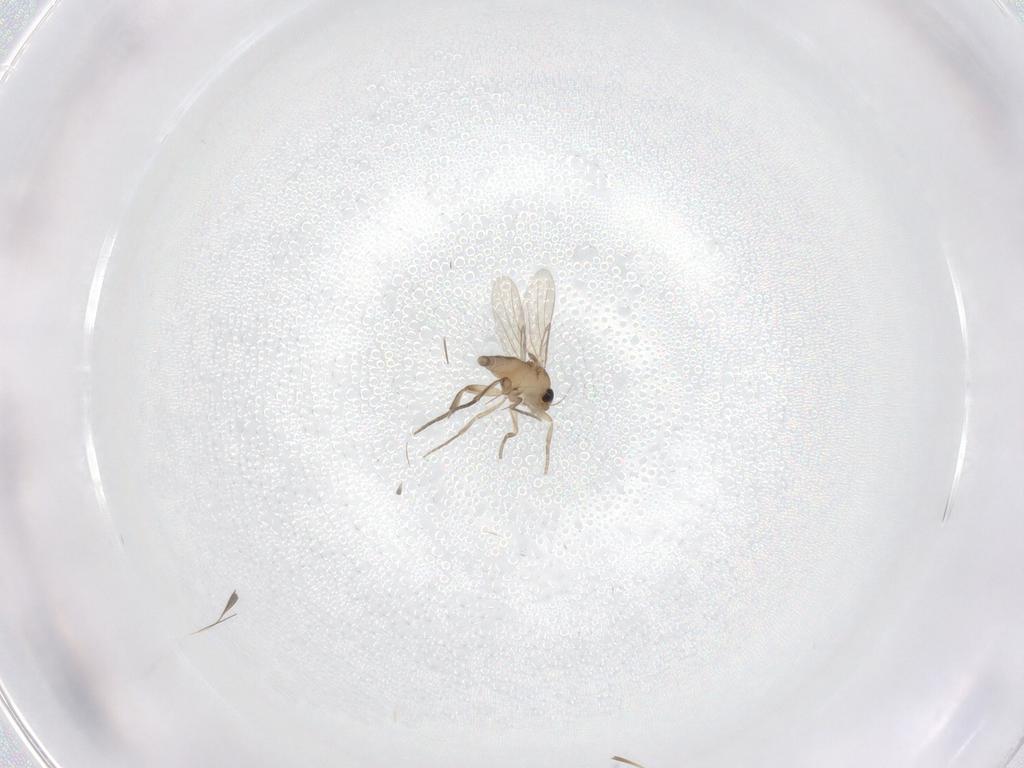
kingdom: Animalia
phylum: Arthropoda
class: Insecta
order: Diptera
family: Phoridae
